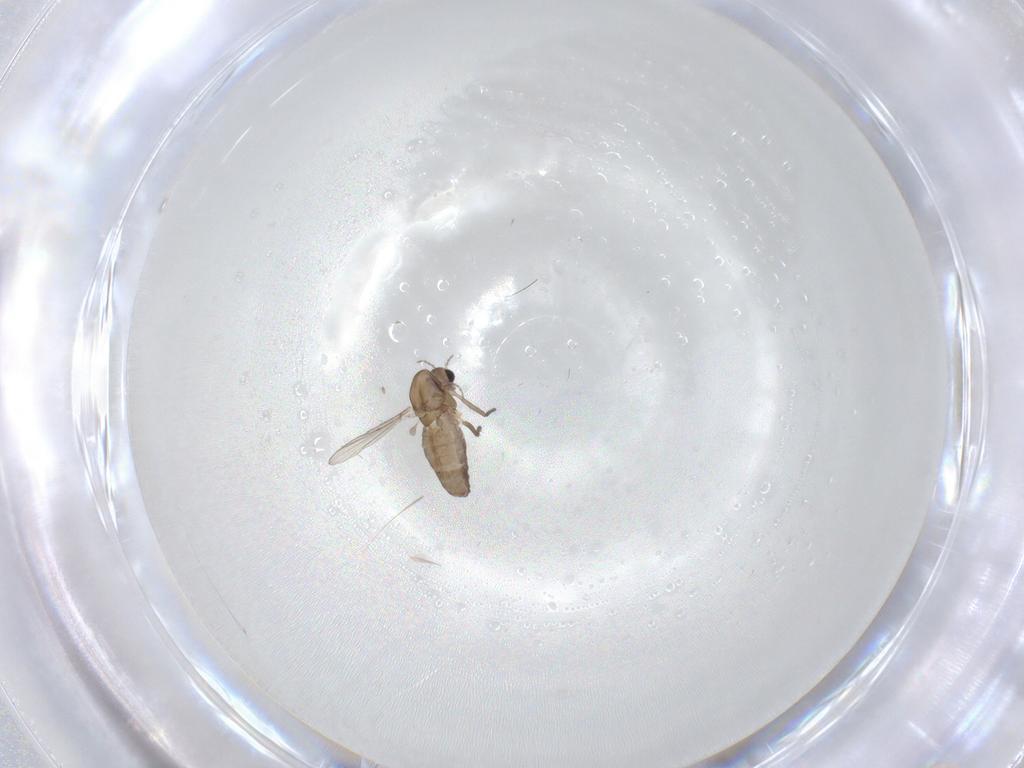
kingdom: Animalia
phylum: Arthropoda
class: Insecta
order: Diptera
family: Chironomidae
